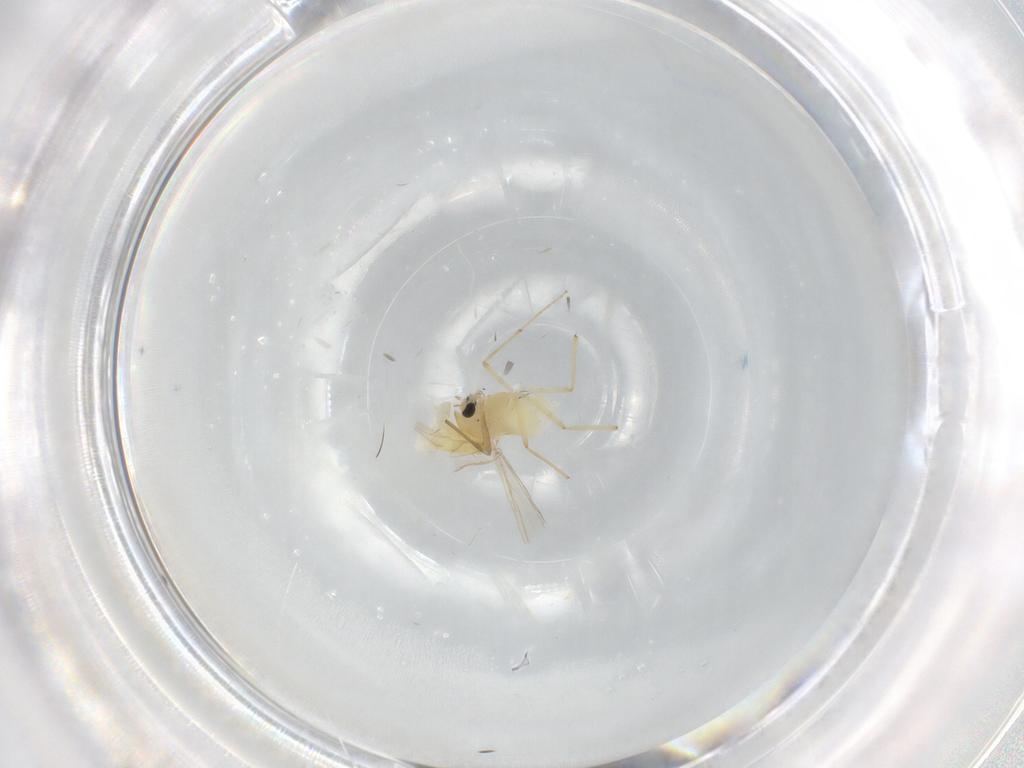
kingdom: Animalia
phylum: Arthropoda
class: Insecta
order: Diptera
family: Chironomidae
